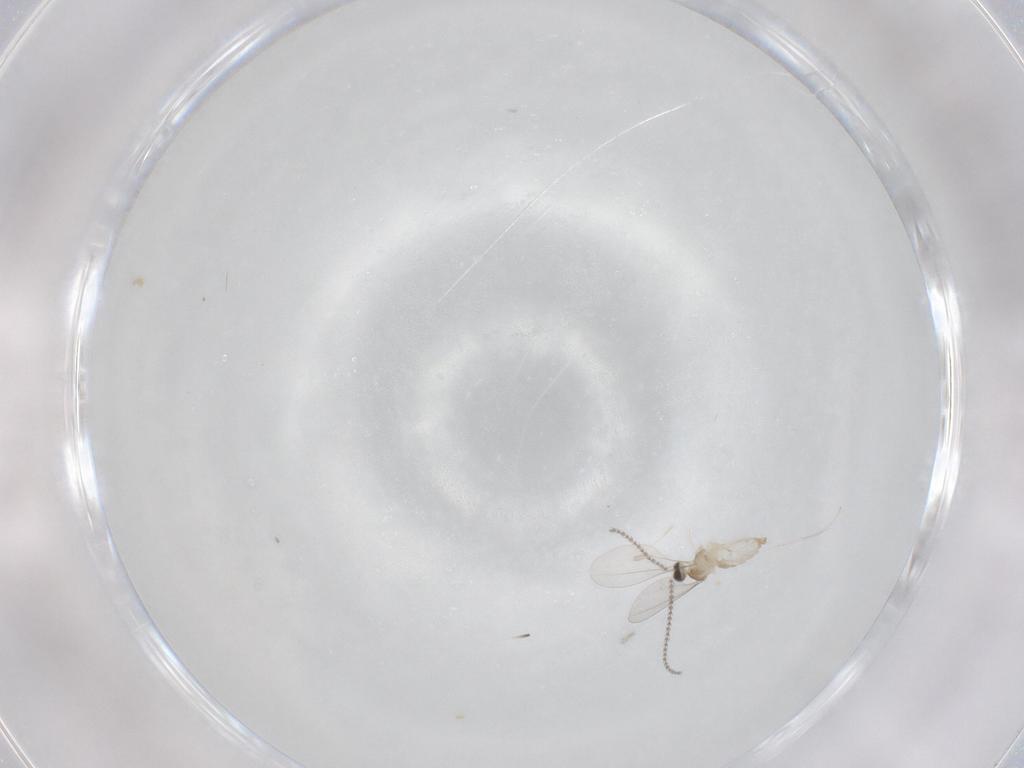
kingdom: Animalia
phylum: Arthropoda
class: Insecta
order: Diptera
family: Cecidomyiidae
